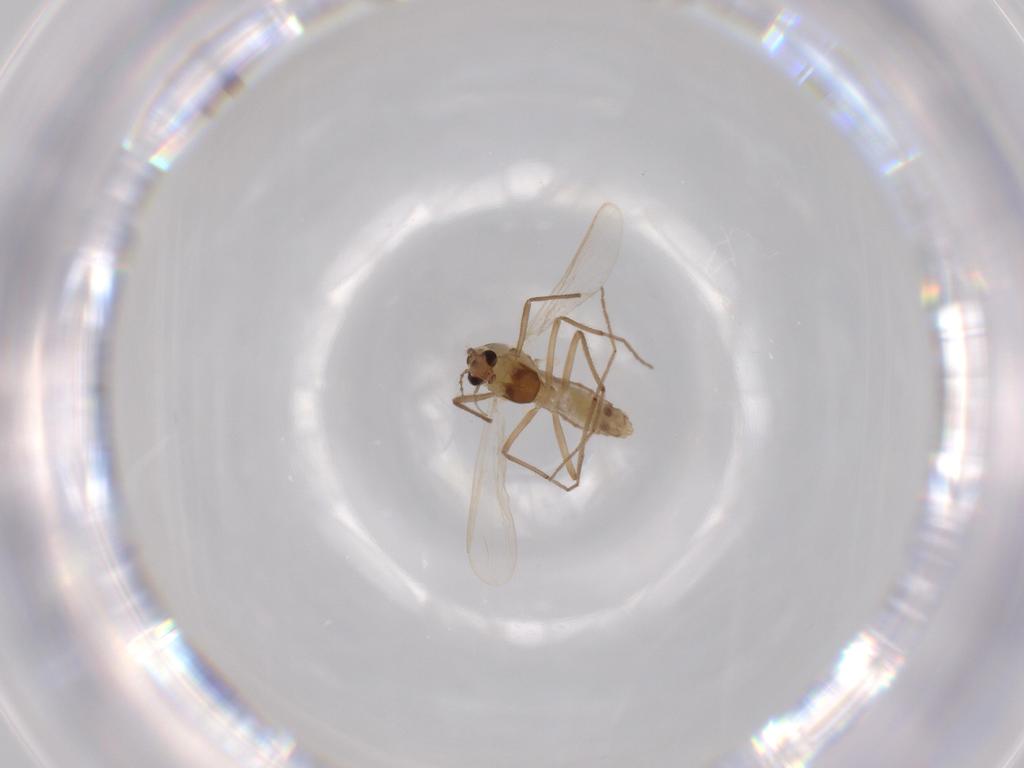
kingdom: Animalia
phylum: Arthropoda
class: Insecta
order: Diptera
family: Chironomidae
